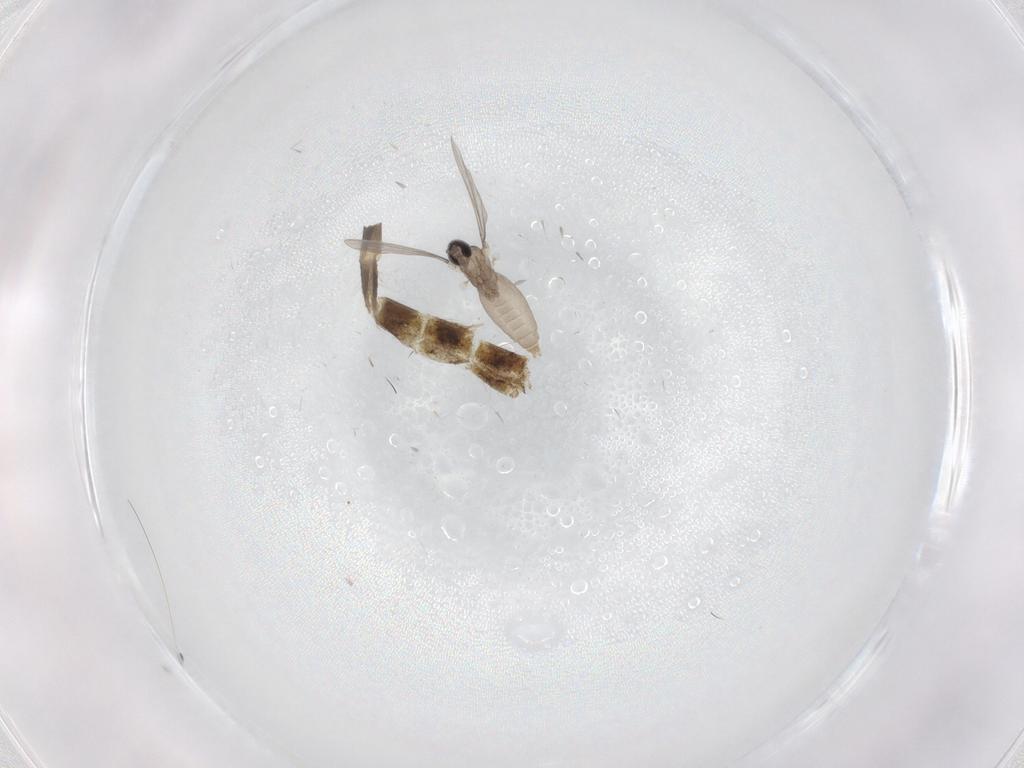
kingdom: Animalia
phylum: Arthropoda
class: Insecta
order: Diptera
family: Cecidomyiidae
